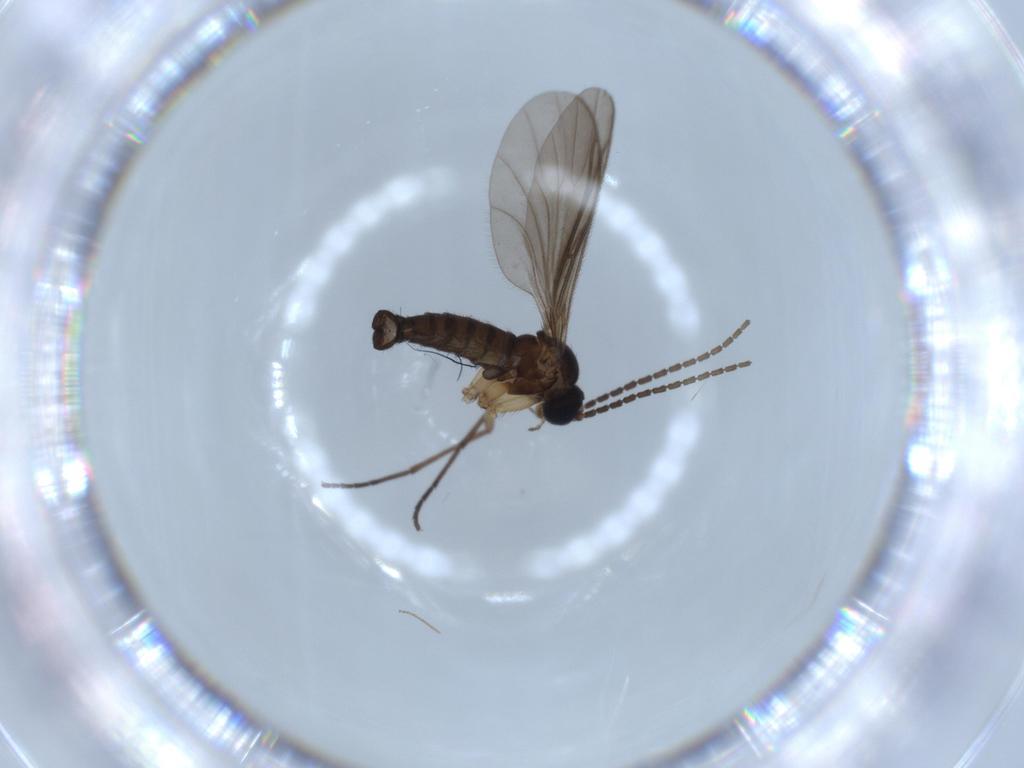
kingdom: Animalia
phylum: Arthropoda
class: Insecta
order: Diptera
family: Sciaridae
